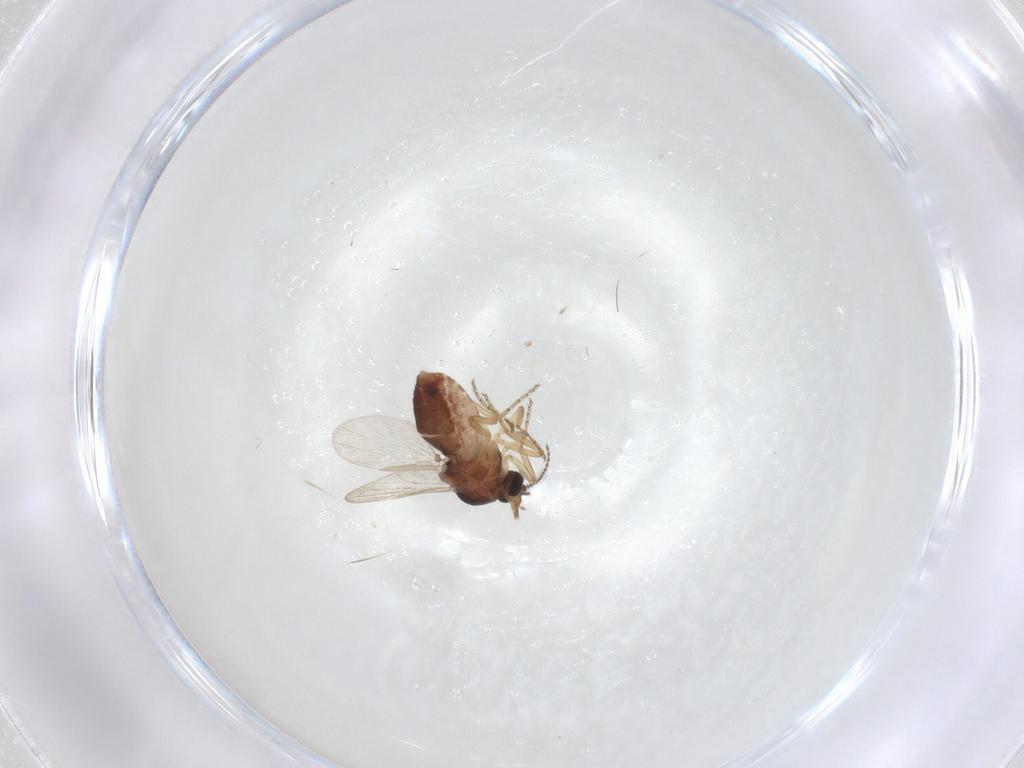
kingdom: Animalia
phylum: Arthropoda
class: Insecta
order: Diptera
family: Ceratopogonidae
